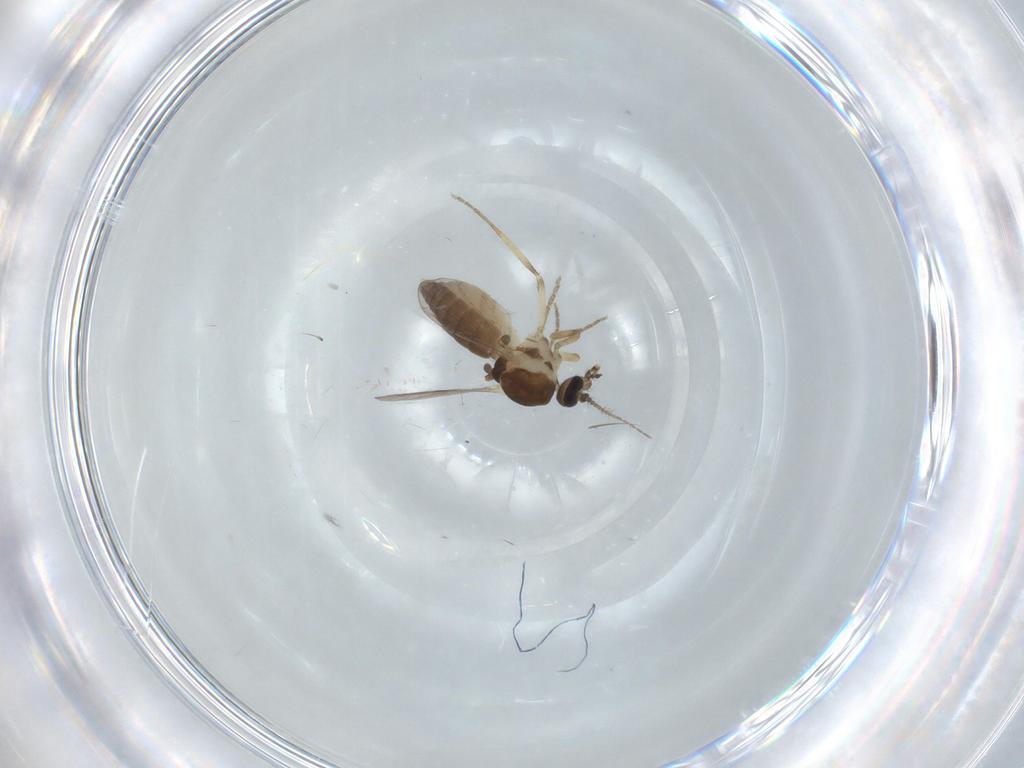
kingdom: Animalia
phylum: Arthropoda
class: Insecta
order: Diptera
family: Ceratopogonidae
